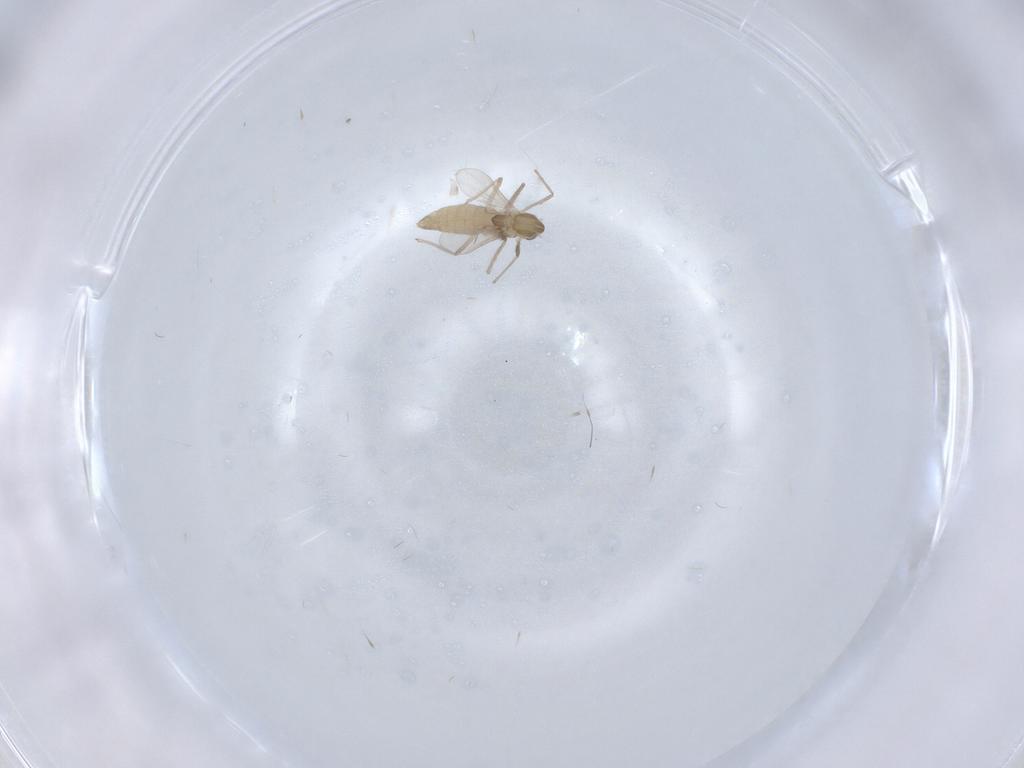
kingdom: Animalia
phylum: Arthropoda
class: Insecta
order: Diptera
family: Chironomidae
